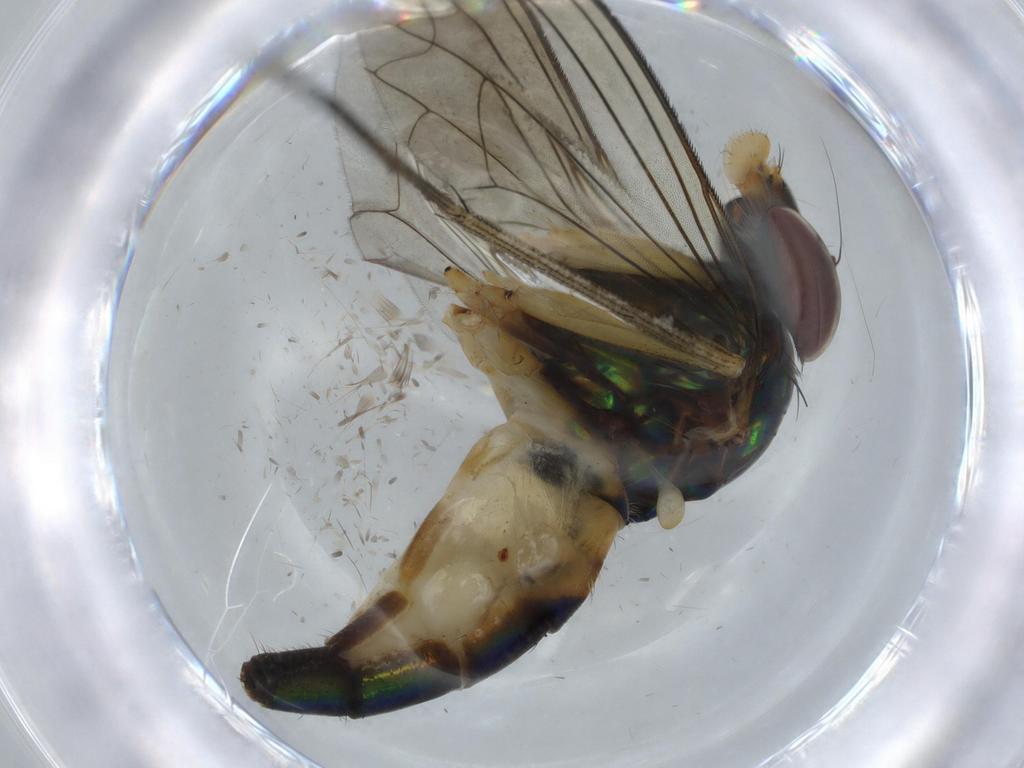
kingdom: Animalia
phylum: Arthropoda
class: Insecta
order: Diptera
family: Dolichopodidae
